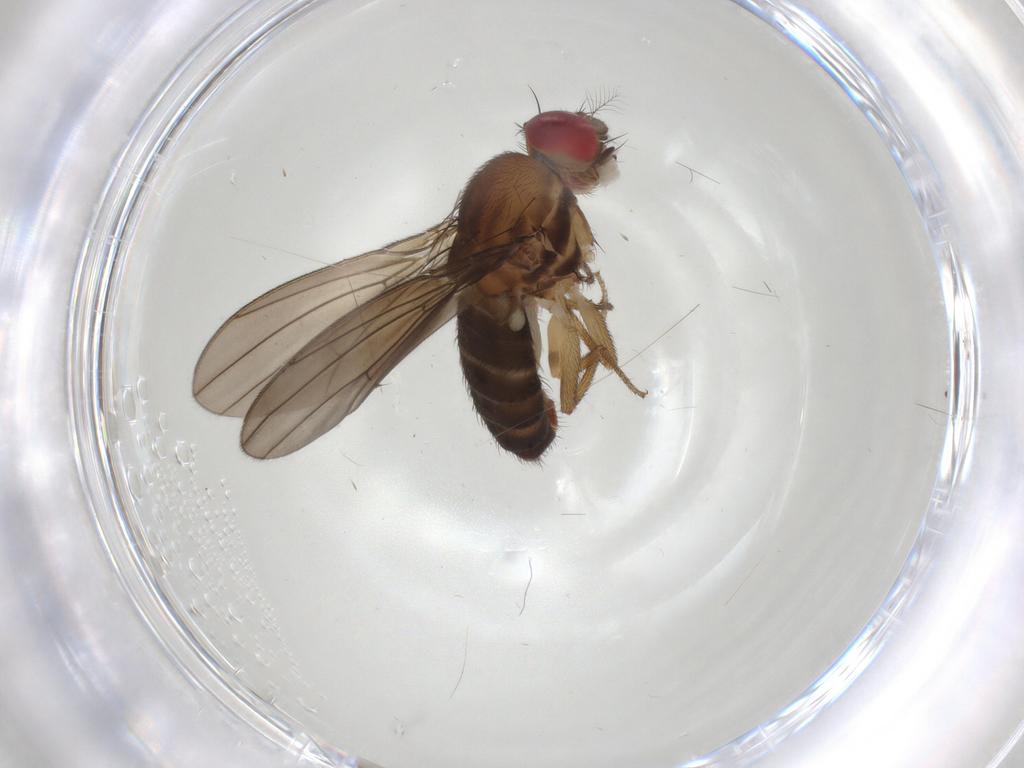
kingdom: Animalia
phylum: Arthropoda
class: Insecta
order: Diptera
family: Drosophilidae
